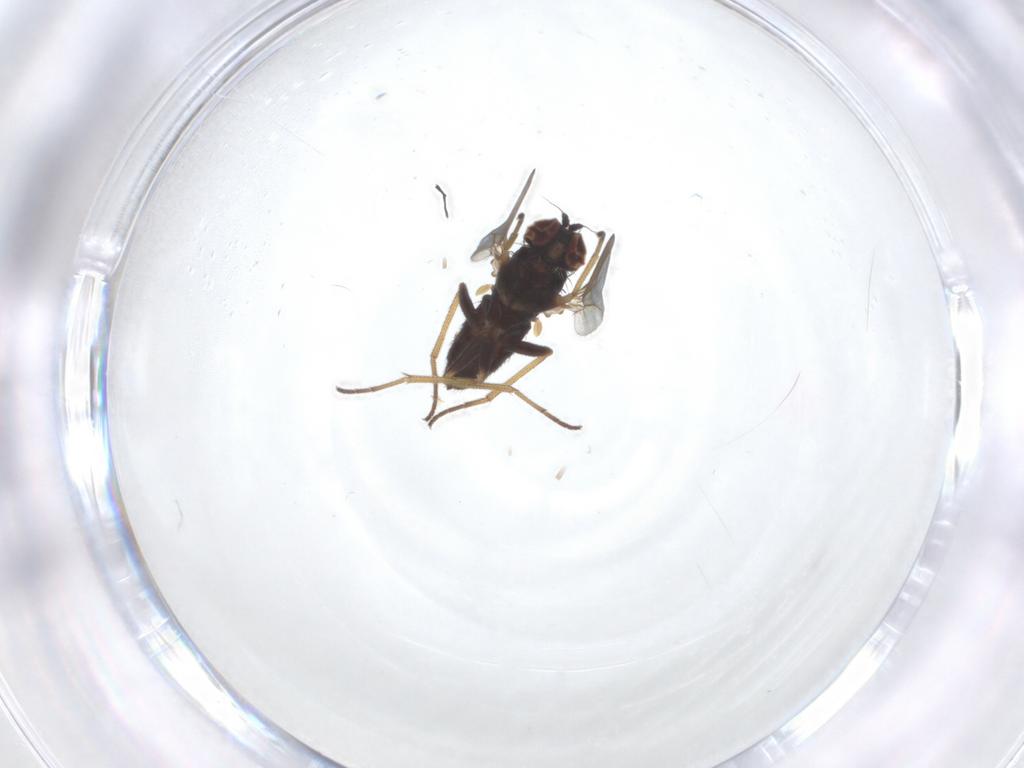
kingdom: Animalia
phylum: Arthropoda
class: Insecta
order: Diptera
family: Dolichopodidae
